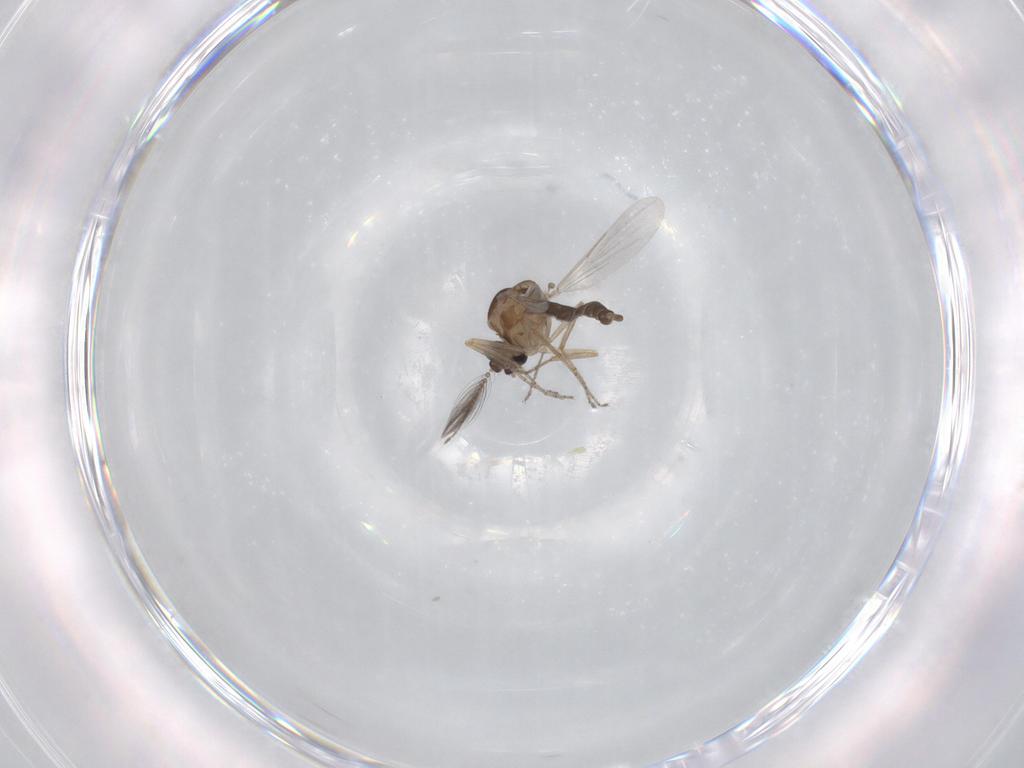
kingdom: Animalia
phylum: Arthropoda
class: Insecta
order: Diptera
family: Ceratopogonidae
